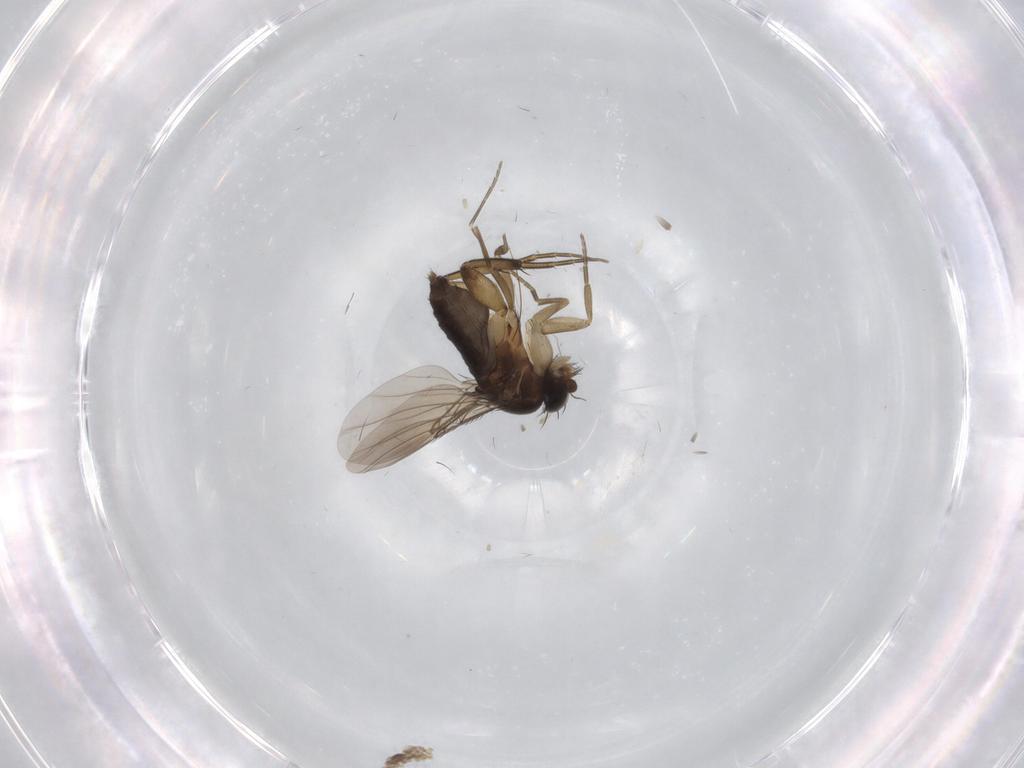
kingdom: Animalia
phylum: Arthropoda
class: Insecta
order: Diptera
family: Phoridae
